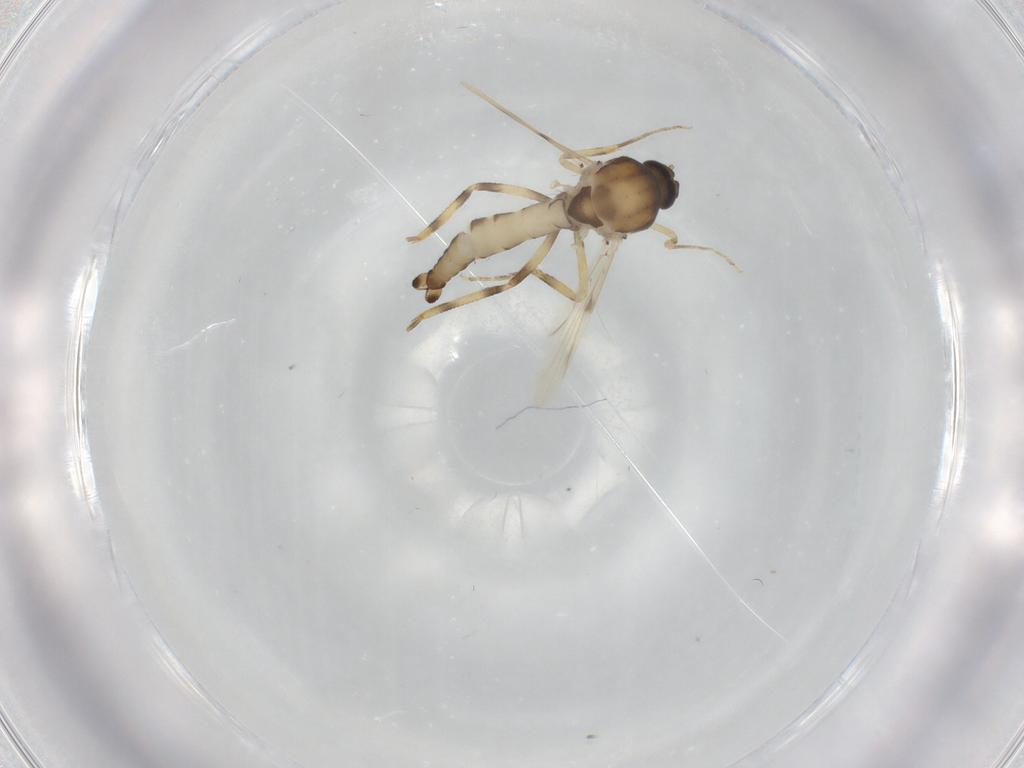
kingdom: Animalia
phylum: Arthropoda
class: Insecta
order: Diptera
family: Ceratopogonidae
